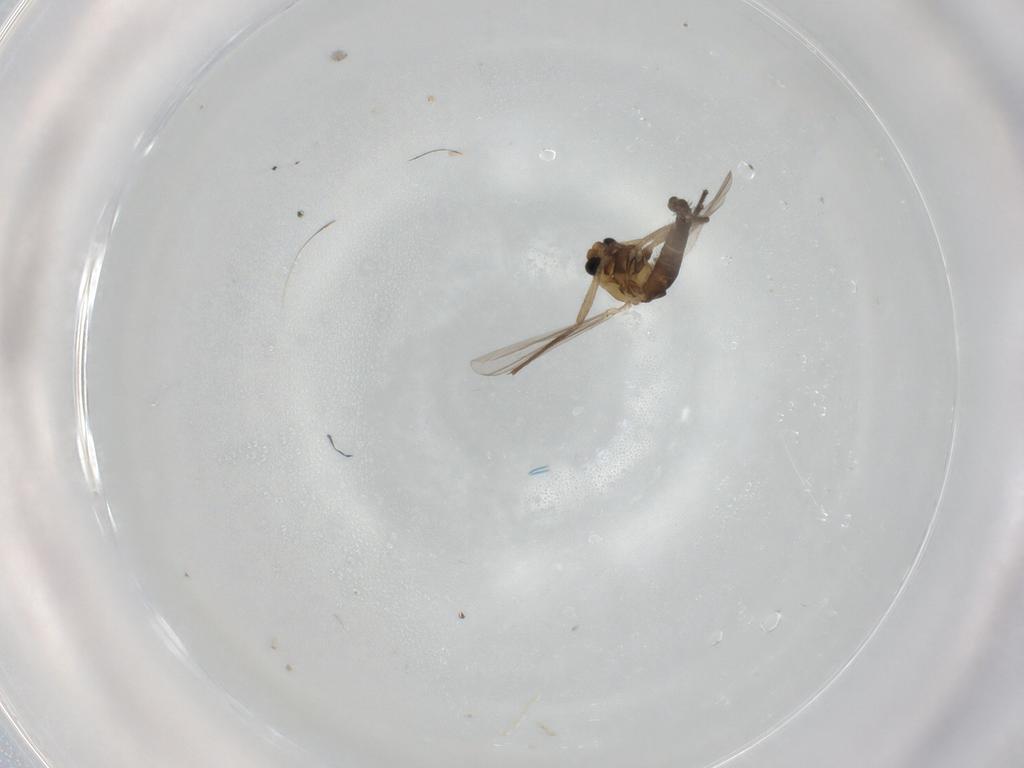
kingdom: Animalia
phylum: Arthropoda
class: Insecta
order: Diptera
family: Chironomidae
